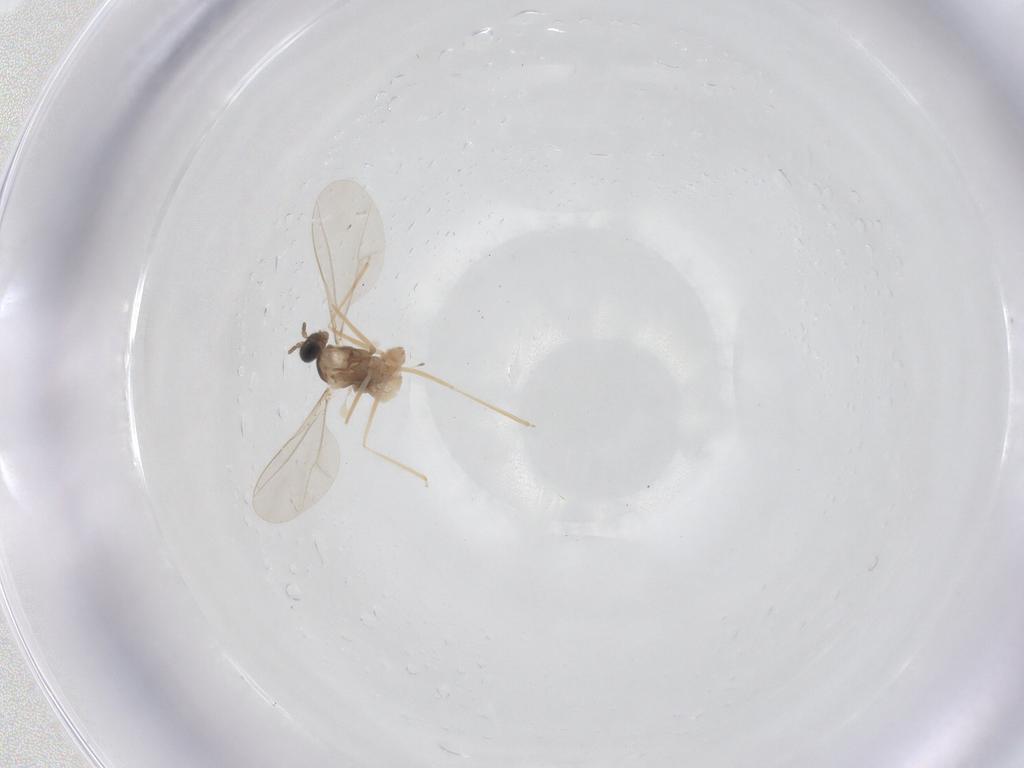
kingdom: Animalia
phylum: Arthropoda
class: Insecta
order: Diptera
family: Cecidomyiidae
